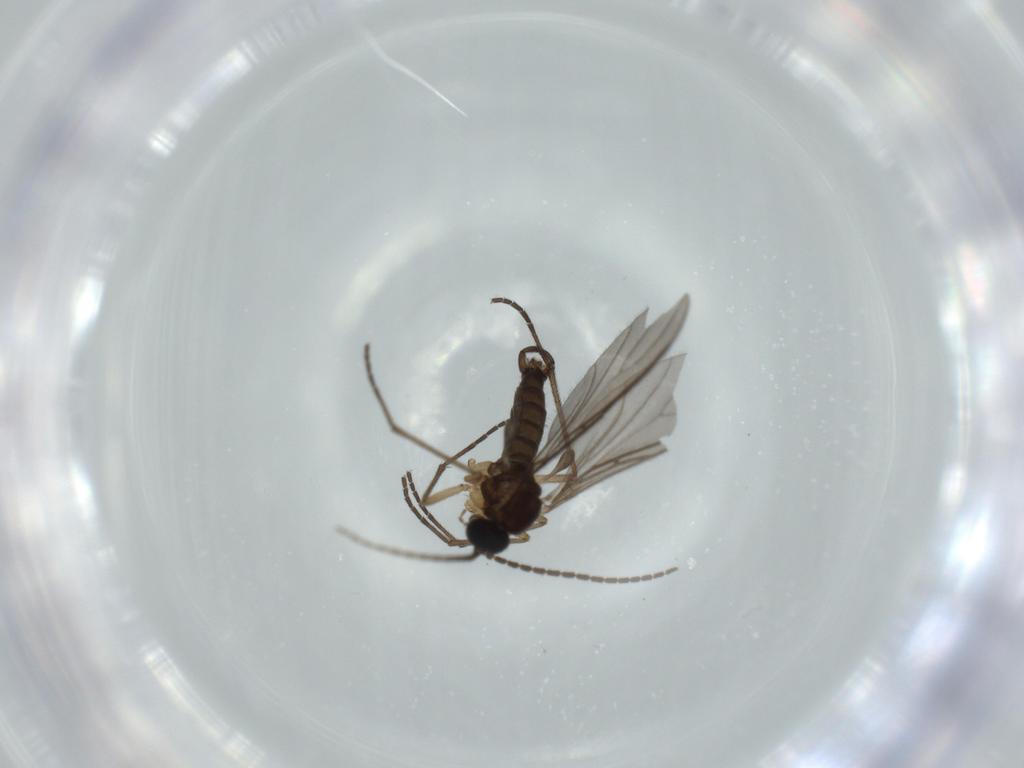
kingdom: Animalia
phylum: Arthropoda
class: Insecta
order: Diptera
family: Sciaridae
